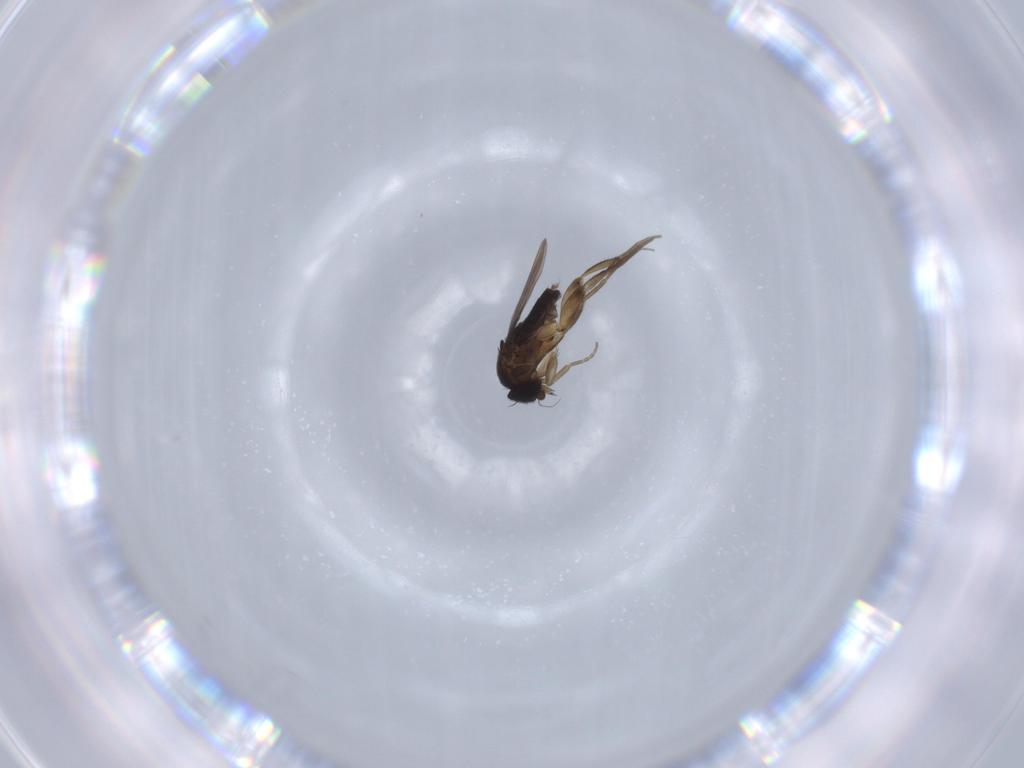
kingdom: Animalia
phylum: Arthropoda
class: Insecta
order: Diptera
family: Phoridae
